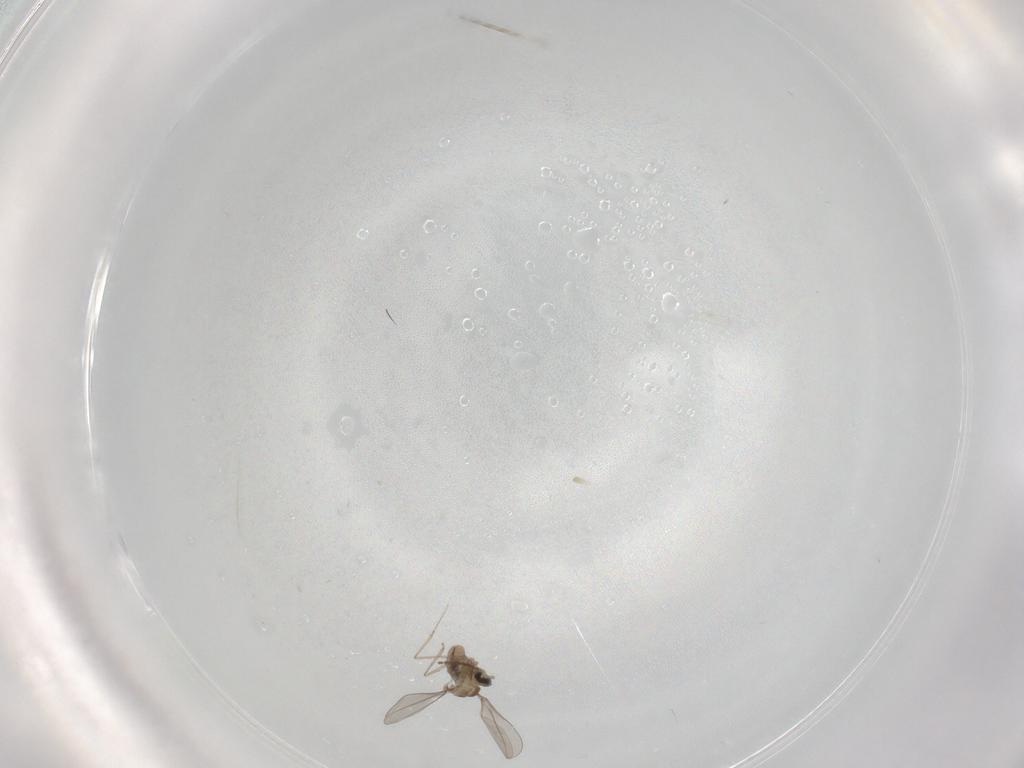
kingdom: Animalia
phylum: Arthropoda
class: Insecta
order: Diptera
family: Cecidomyiidae
